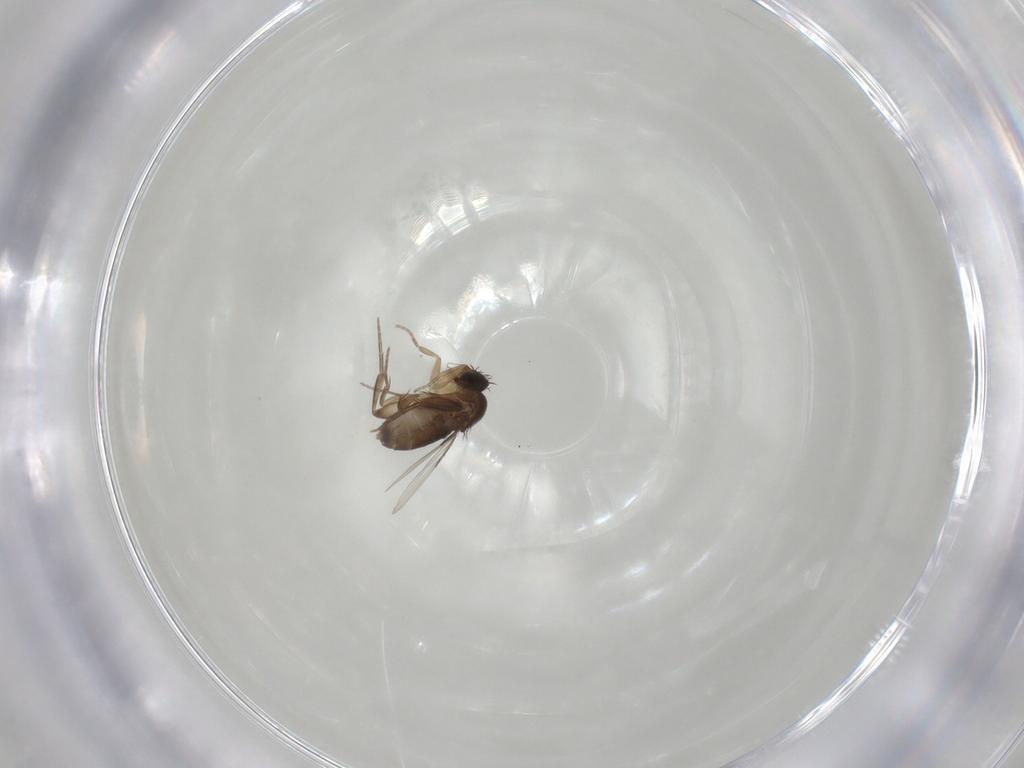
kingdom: Animalia
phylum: Arthropoda
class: Insecta
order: Diptera
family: Phoridae
